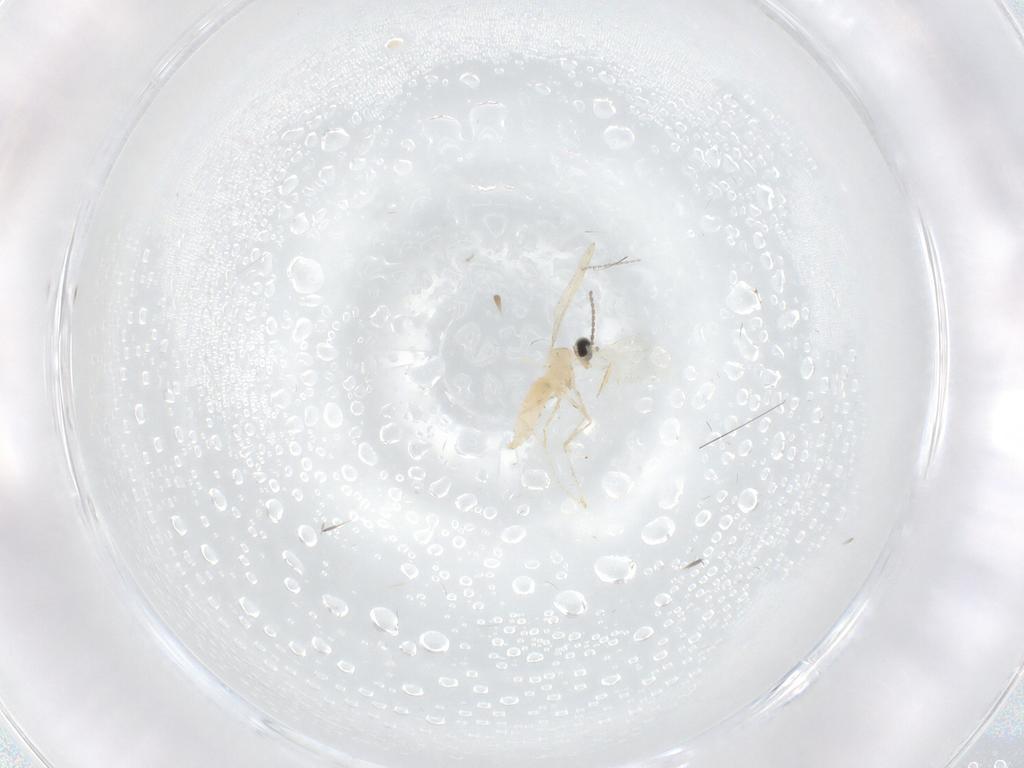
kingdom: Animalia
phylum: Arthropoda
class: Insecta
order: Diptera
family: Cecidomyiidae
